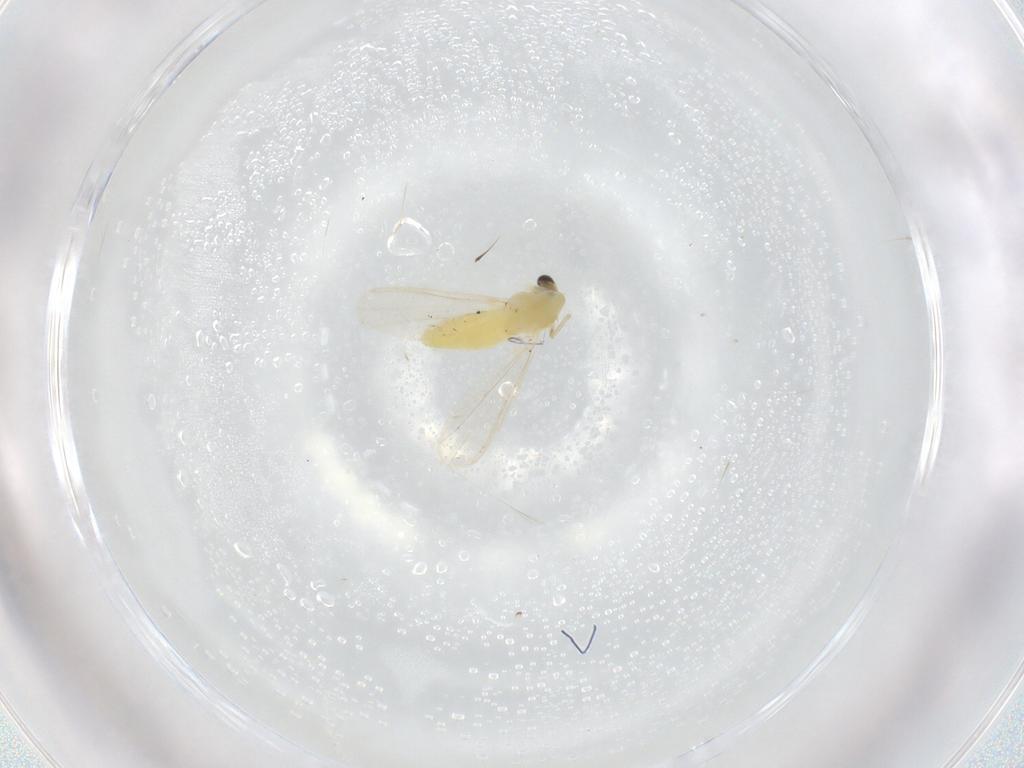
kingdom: Animalia
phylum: Arthropoda
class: Insecta
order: Diptera
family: Chironomidae
